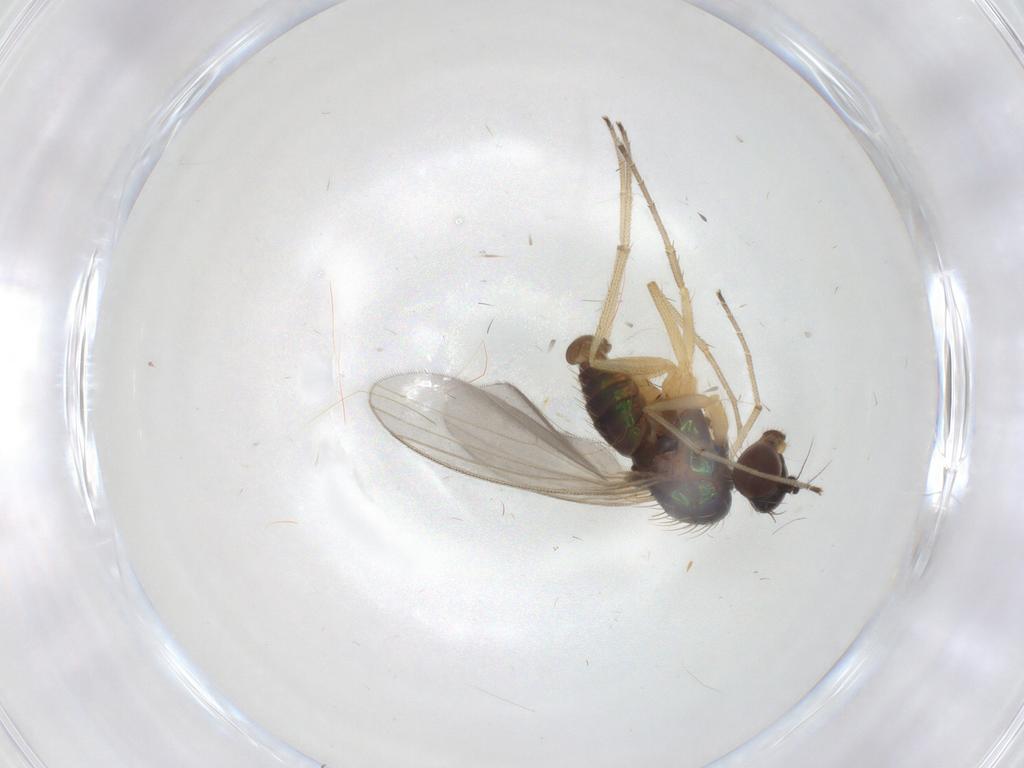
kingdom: Animalia
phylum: Arthropoda
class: Insecta
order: Diptera
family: Dolichopodidae
